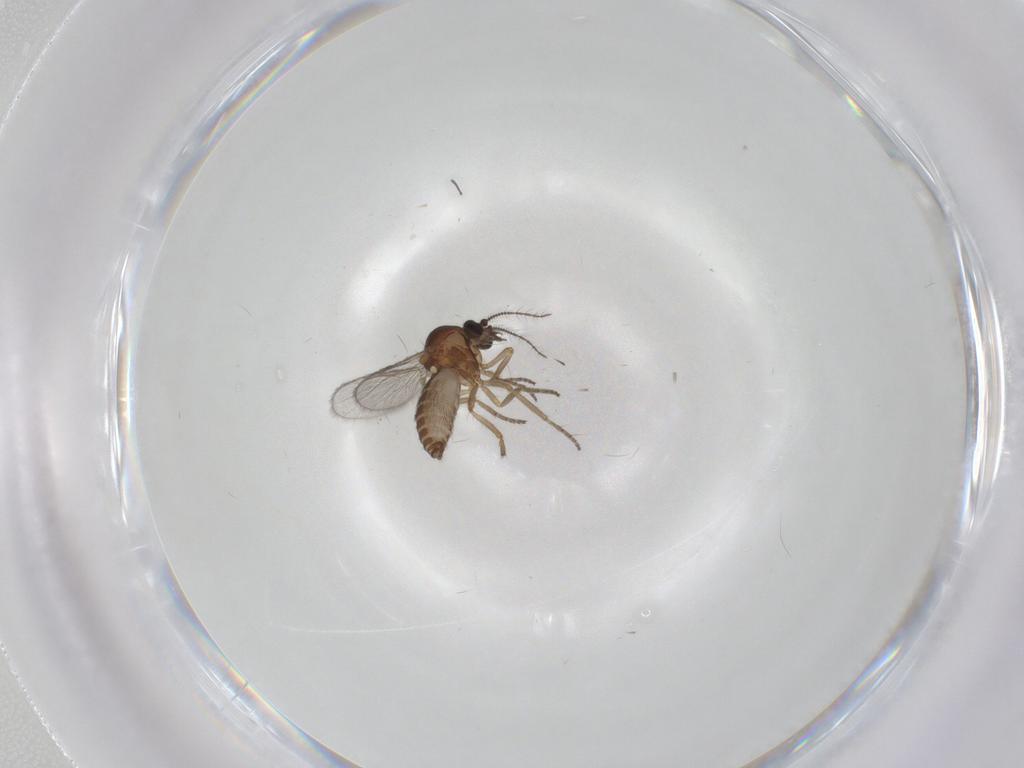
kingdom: Animalia
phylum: Arthropoda
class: Insecta
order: Diptera
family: Ceratopogonidae
